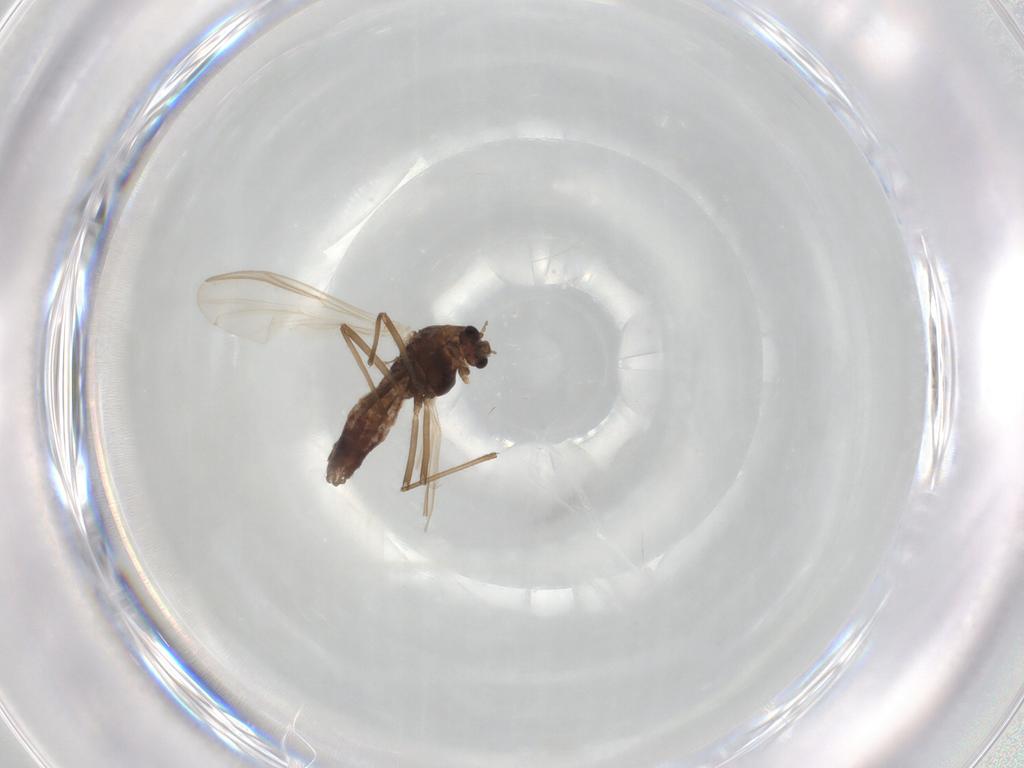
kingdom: Animalia
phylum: Arthropoda
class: Insecta
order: Diptera
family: Chironomidae
